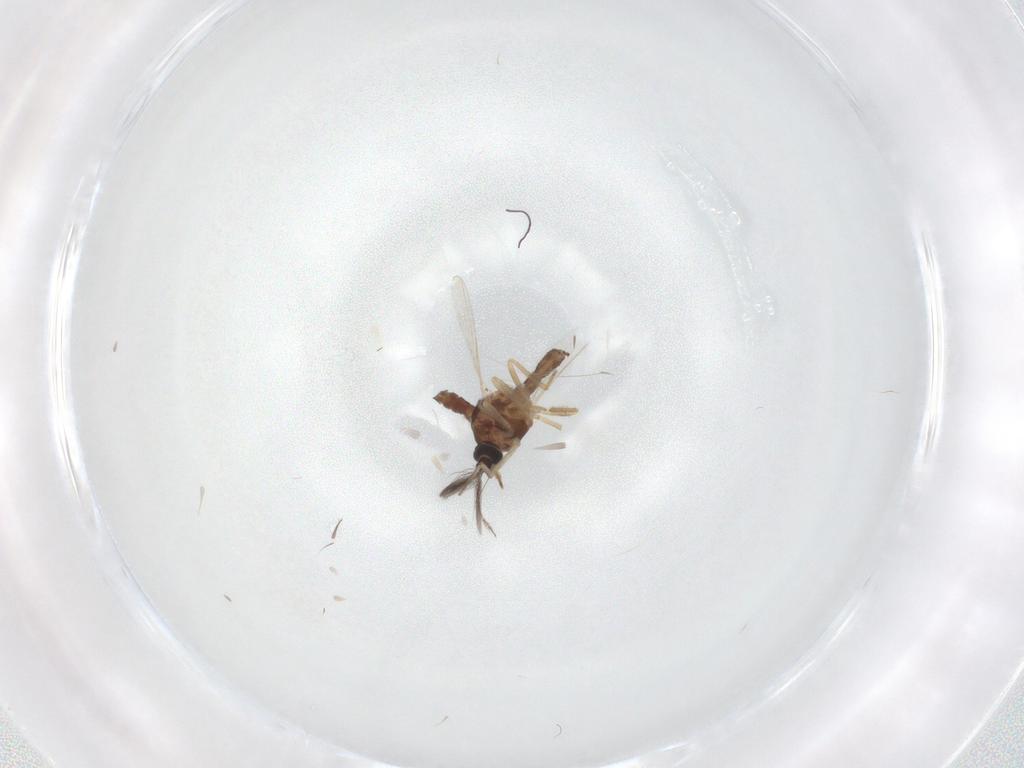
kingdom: Animalia
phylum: Arthropoda
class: Insecta
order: Diptera
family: Ceratopogonidae
